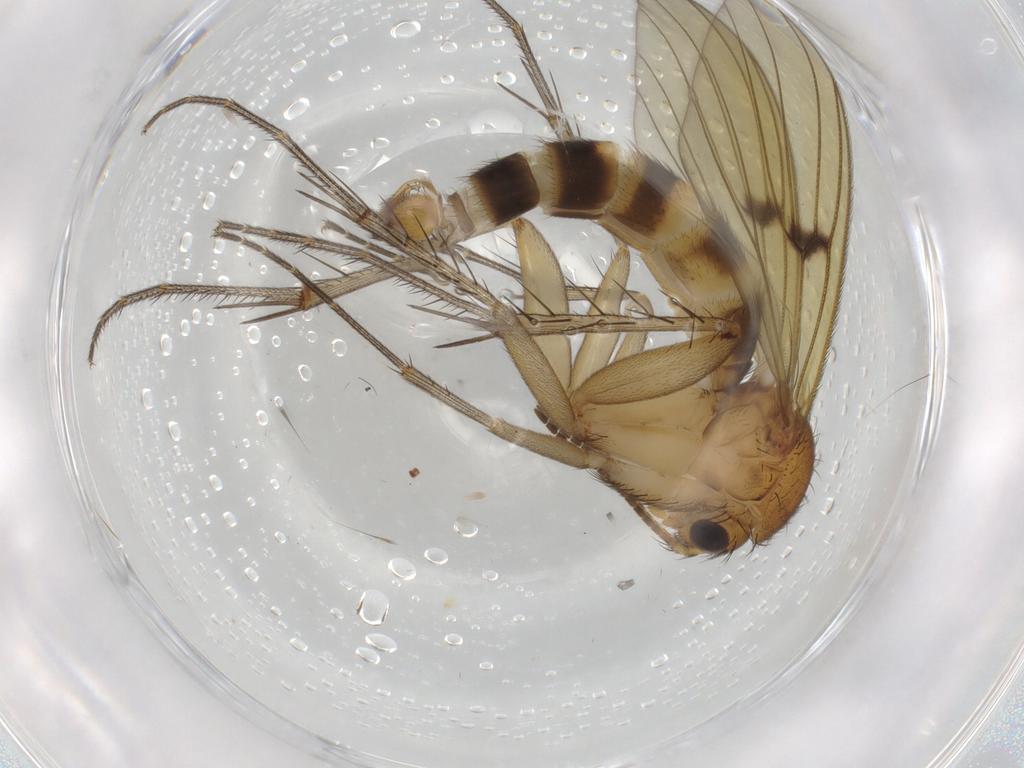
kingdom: Animalia
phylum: Arthropoda
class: Insecta
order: Diptera
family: Mycetophilidae
